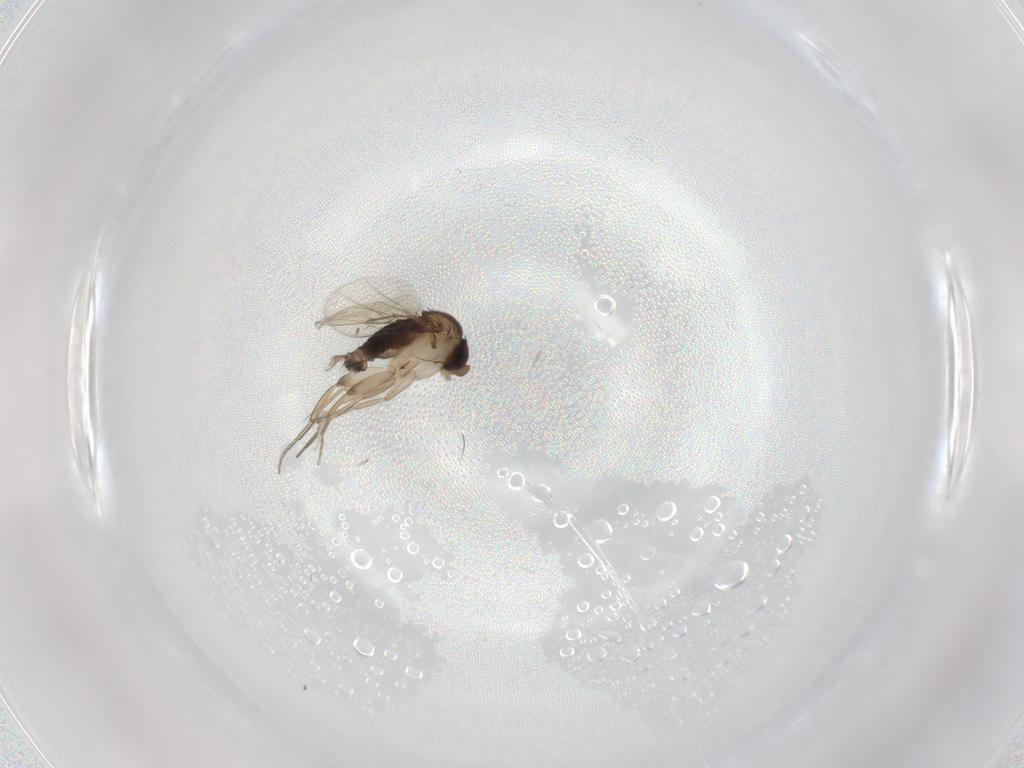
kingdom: Animalia
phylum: Arthropoda
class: Insecta
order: Diptera
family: Cecidomyiidae
